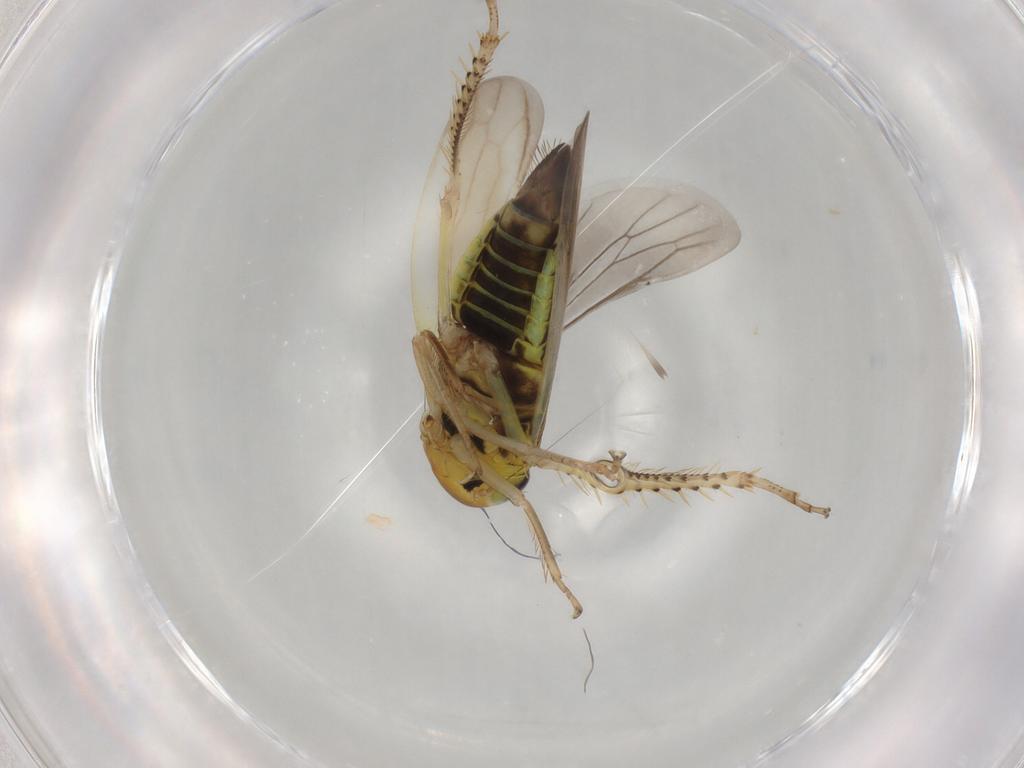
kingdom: Animalia
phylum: Arthropoda
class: Insecta
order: Hemiptera
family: Cicadellidae
